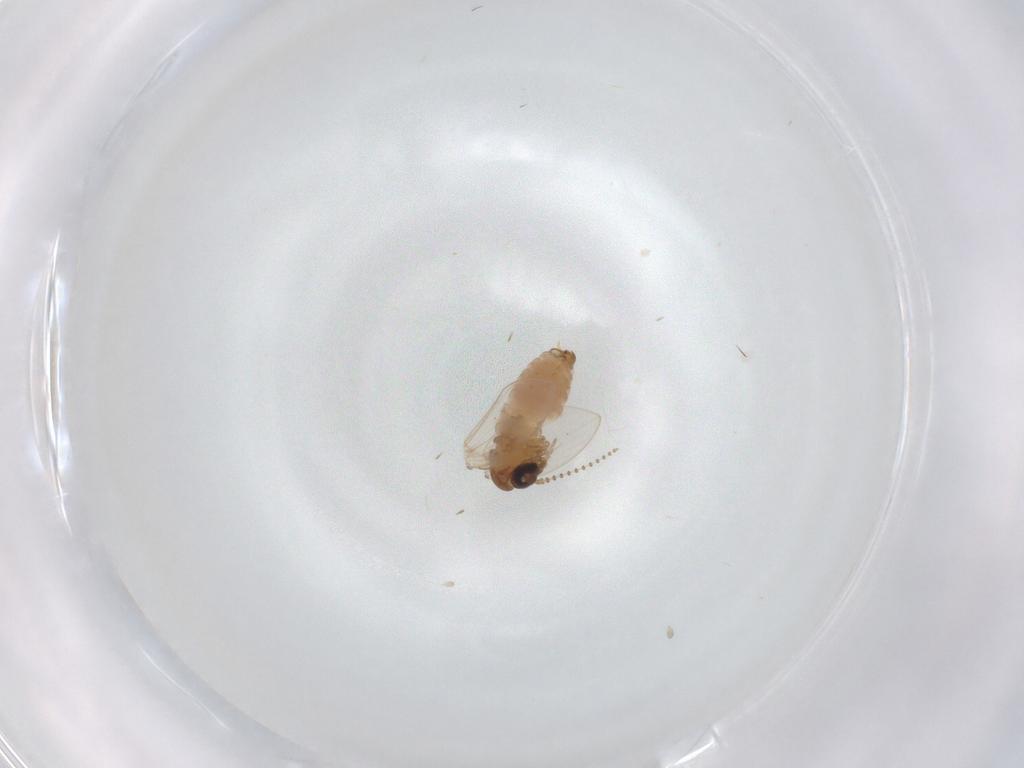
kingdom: Animalia
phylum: Arthropoda
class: Insecta
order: Diptera
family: Psychodidae
